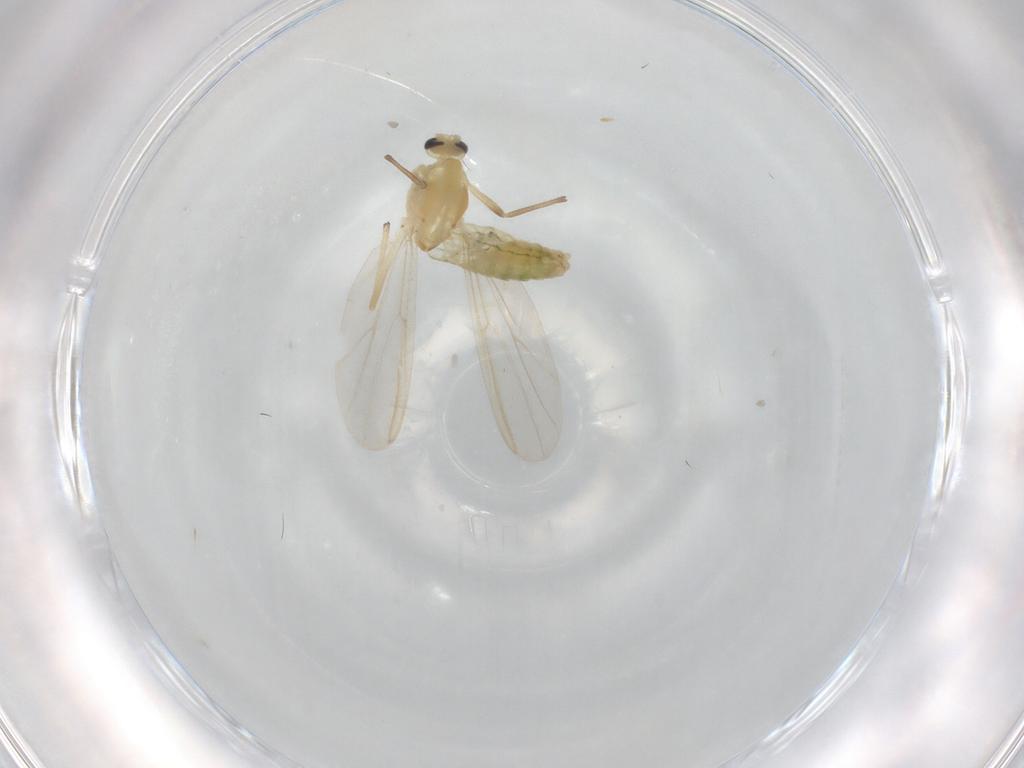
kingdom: Animalia
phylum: Arthropoda
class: Insecta
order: Diptera
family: Chironomidae
